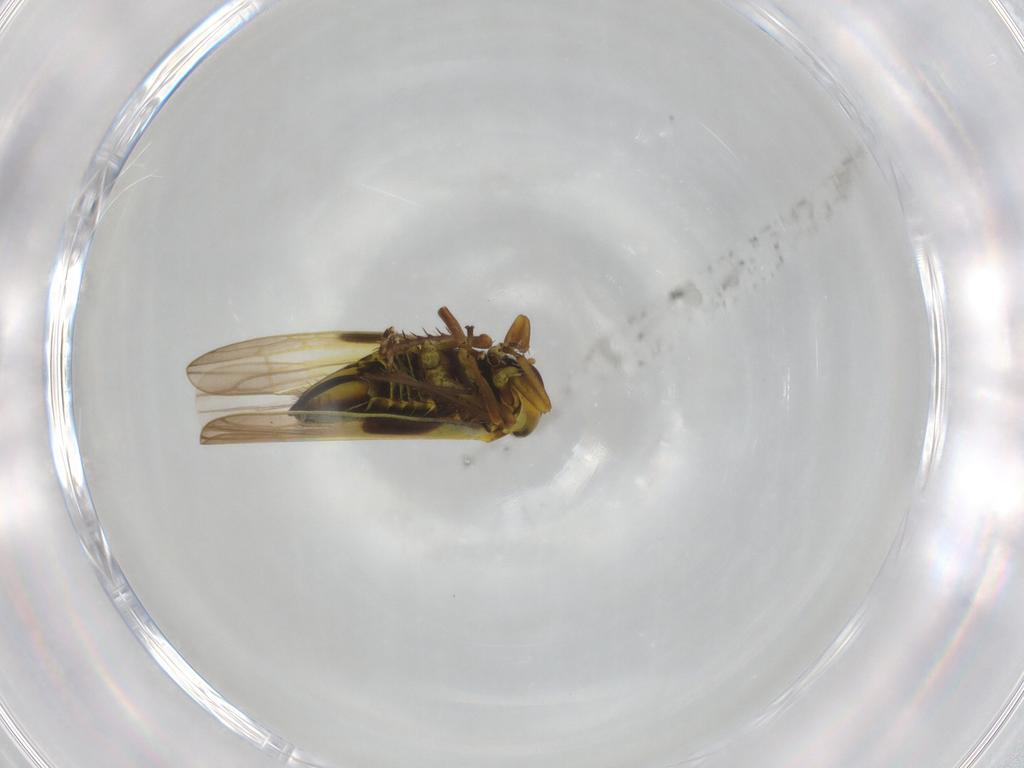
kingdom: Animalia
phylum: Arthropoda
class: Insecta
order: Hemiptera
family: Cicadellidae
